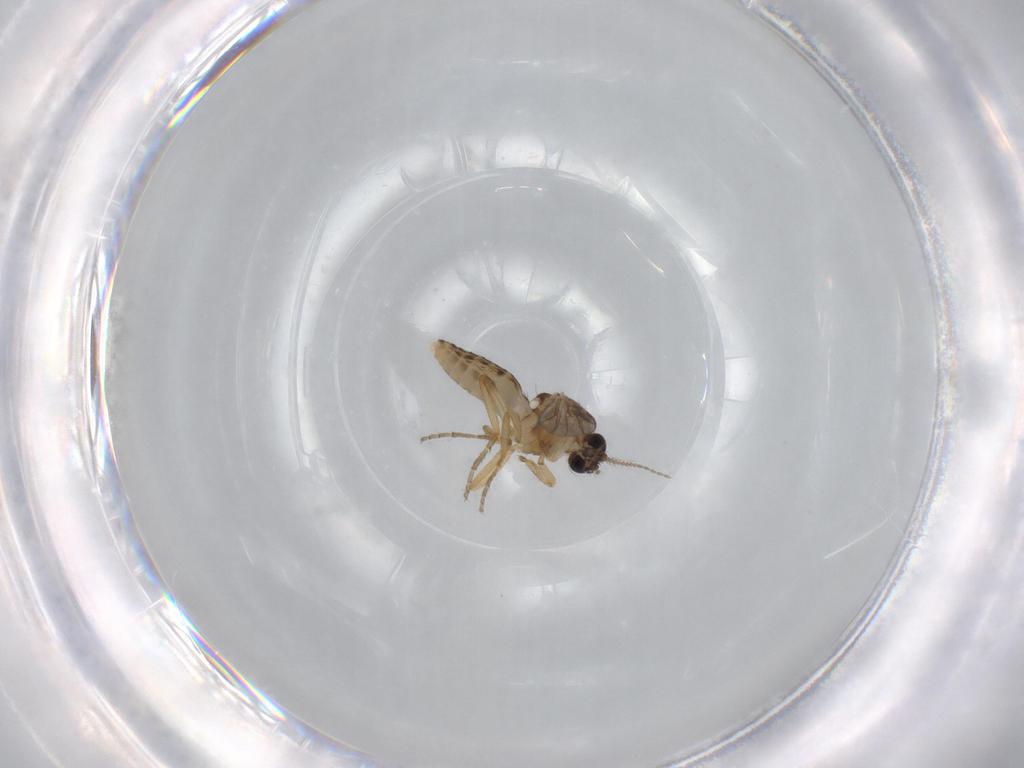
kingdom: Animalia
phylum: Arthropoda
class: Insecta
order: Diptera
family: Ceratopogonidae
